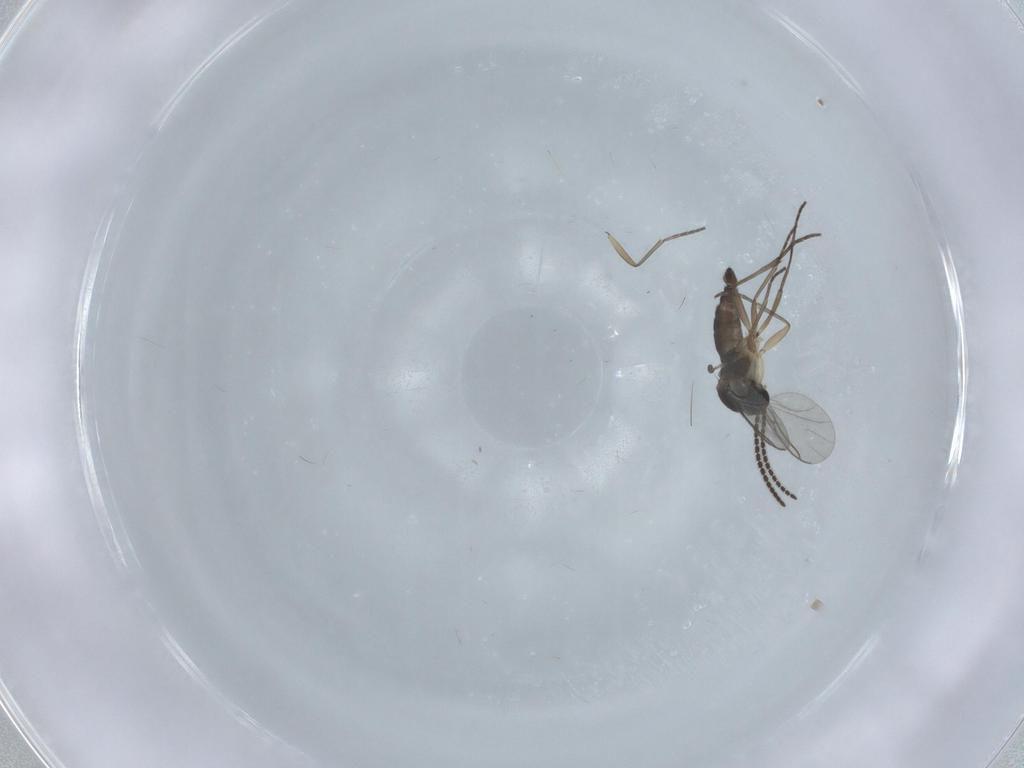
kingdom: Animalia
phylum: Arthropoda
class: Insecta
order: Diptera
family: Sciaridae
